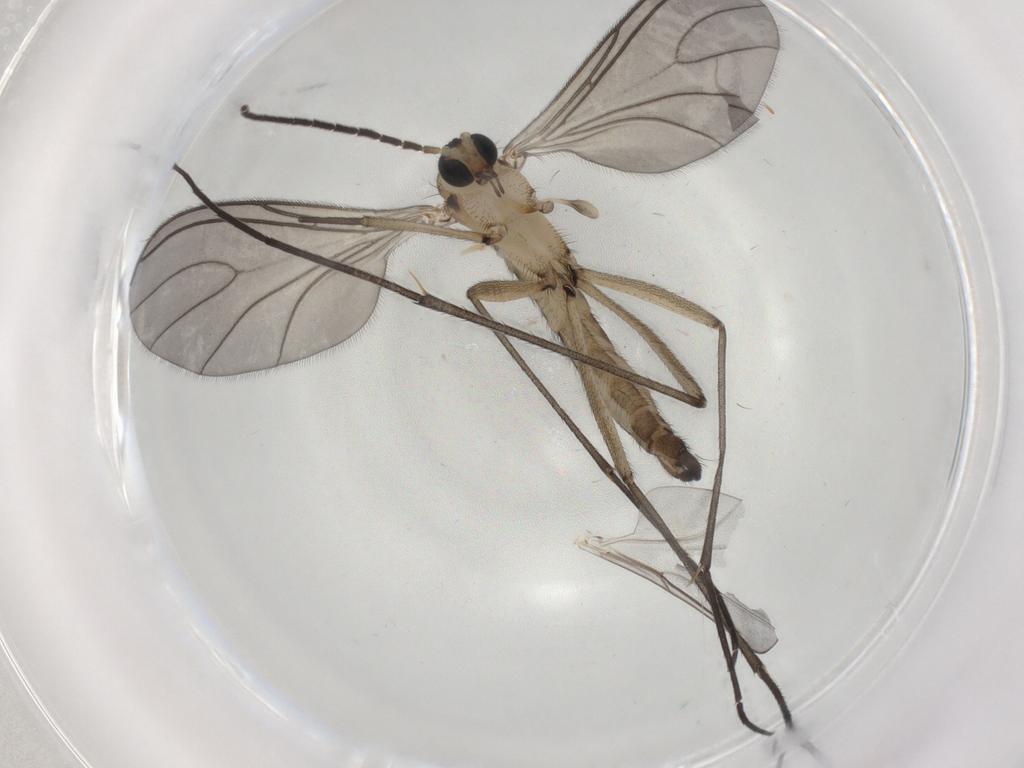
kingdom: Animalia
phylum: Arthropoda
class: Insecta
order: Diptera
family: Sciaridae
